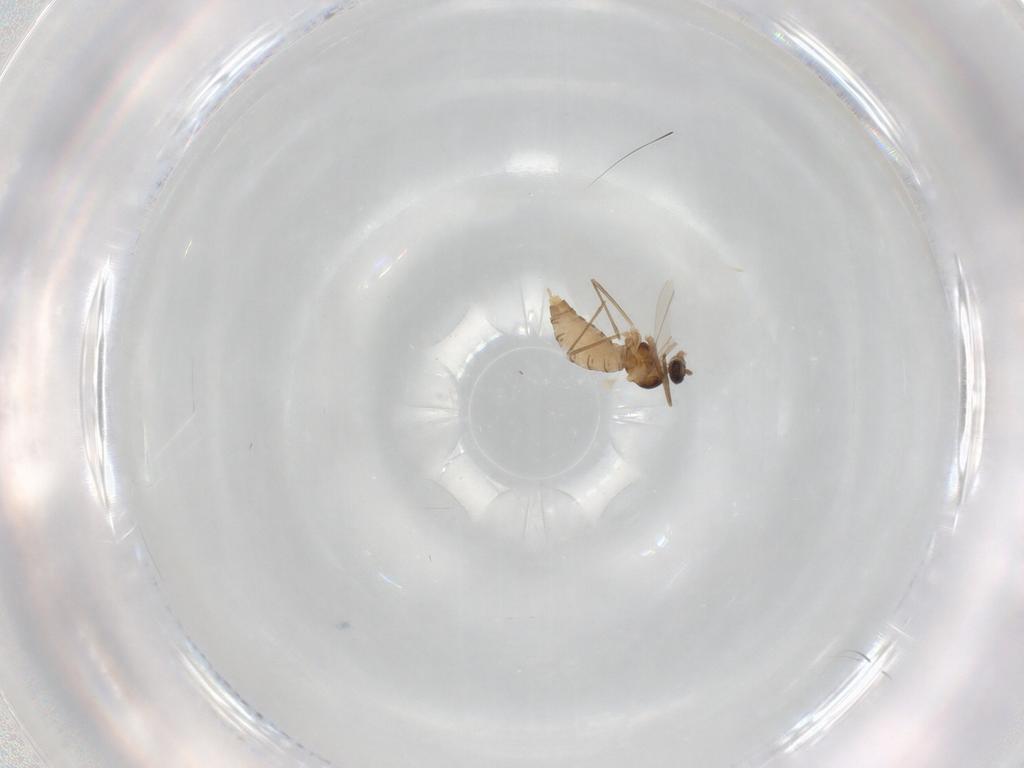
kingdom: Animalia
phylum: Arthropoda
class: Insecta
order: Diptera
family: Cecidomyiidae
